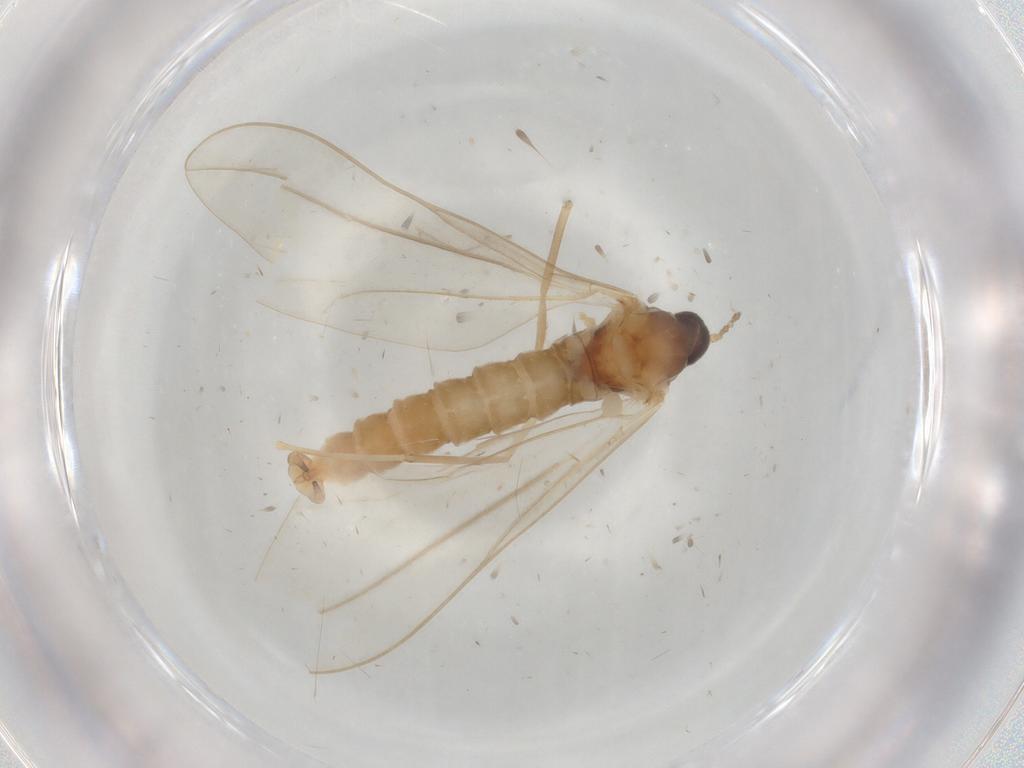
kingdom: Animalia
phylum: Arthropoda
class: Insecta
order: Diptera
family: Cecidomyiidae
